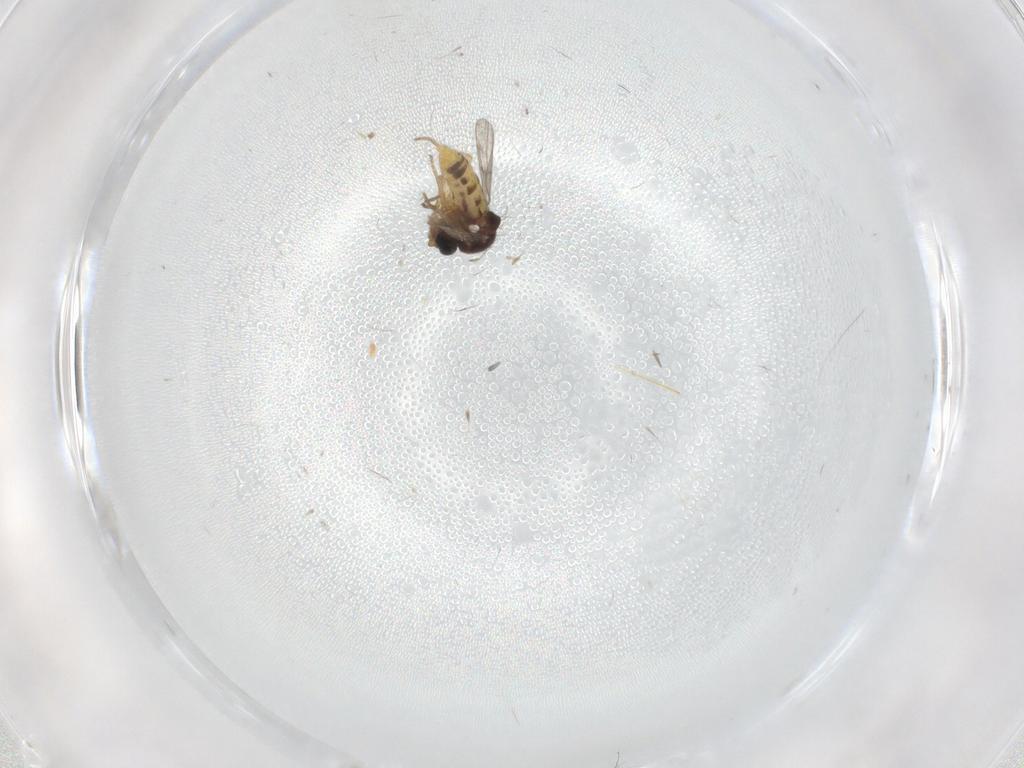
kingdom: Animalia
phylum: Arthropoda
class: Insecta
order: Diptera
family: Ceratopogonidae
